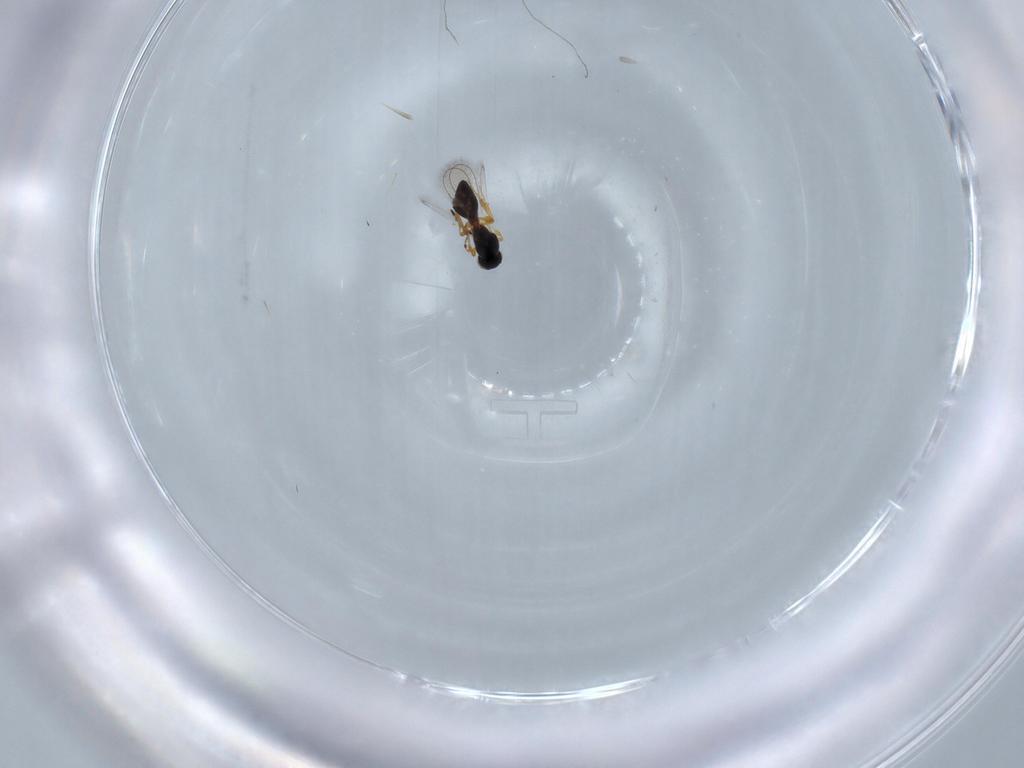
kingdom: Animalia
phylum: Arthropoda
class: Insecta
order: Hymenoptera
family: Platygastridae
